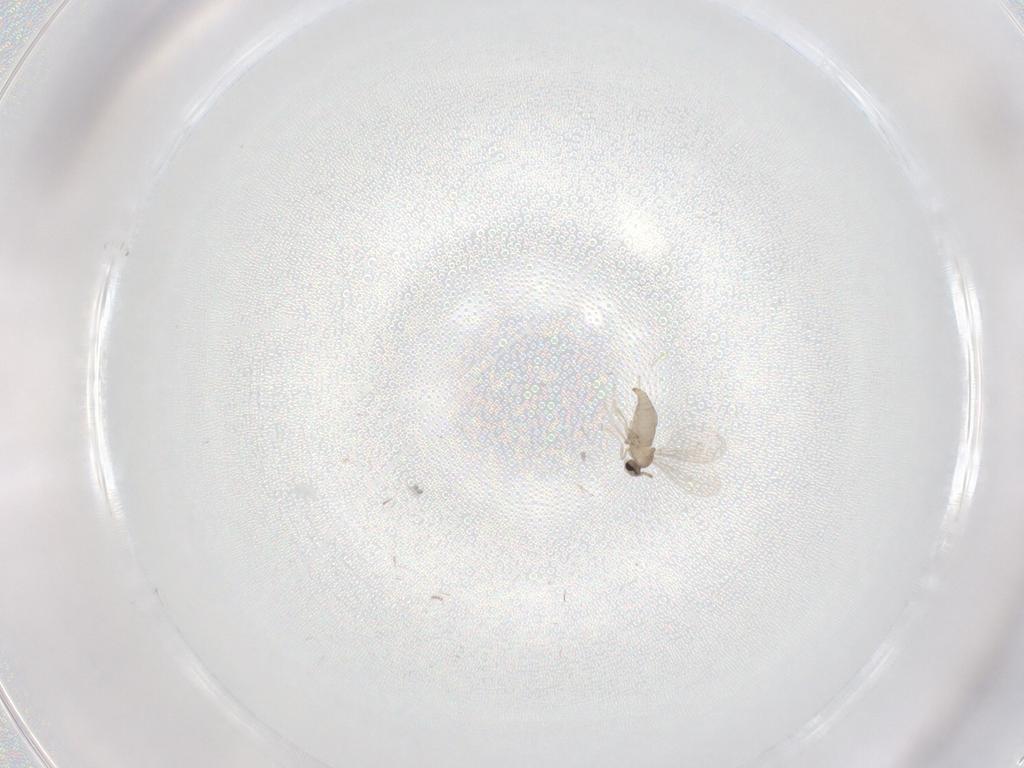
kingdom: Animalia
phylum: Arthropoda
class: Insecta
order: Diptera
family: Cecidomyiidae
